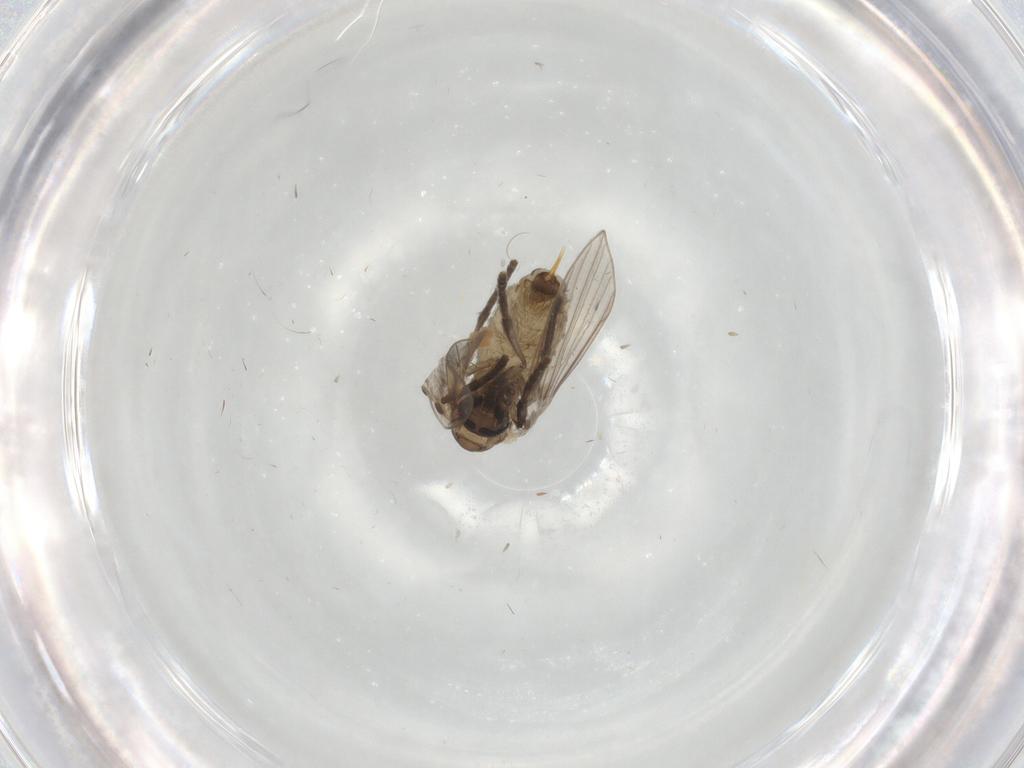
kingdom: Animalia
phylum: Arthropoda
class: Insecta
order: Diptera
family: Psychodidae
